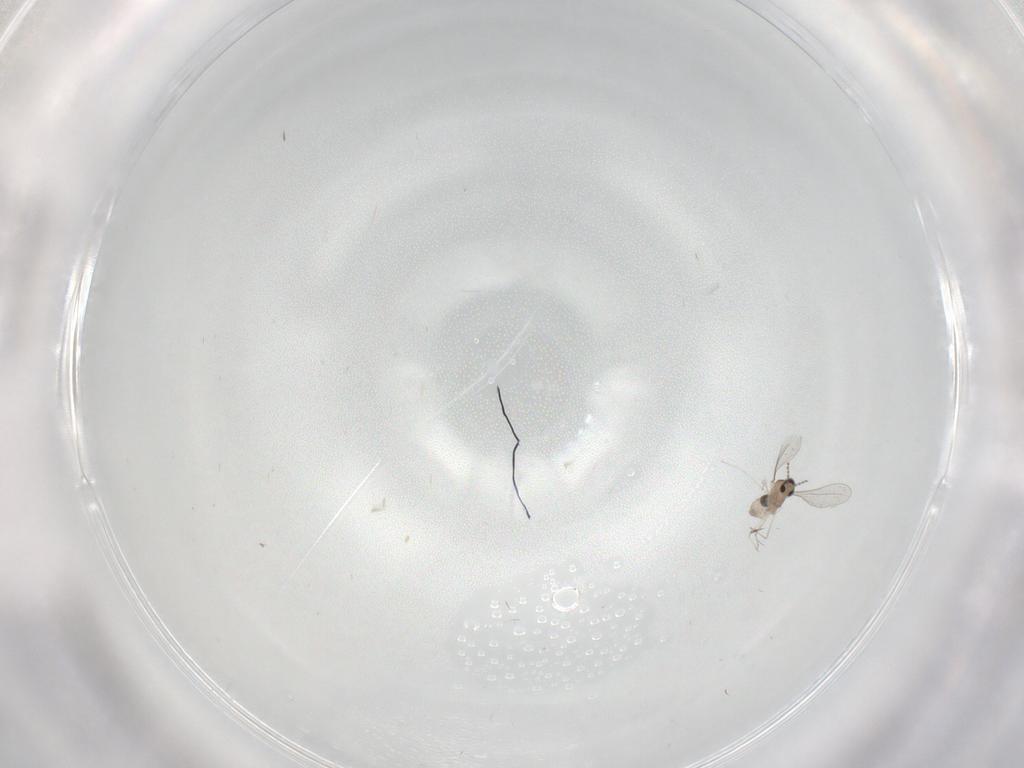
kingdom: Animalia
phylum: Arthropoda
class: Insecta
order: Diptera
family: Cecidomyiidae
